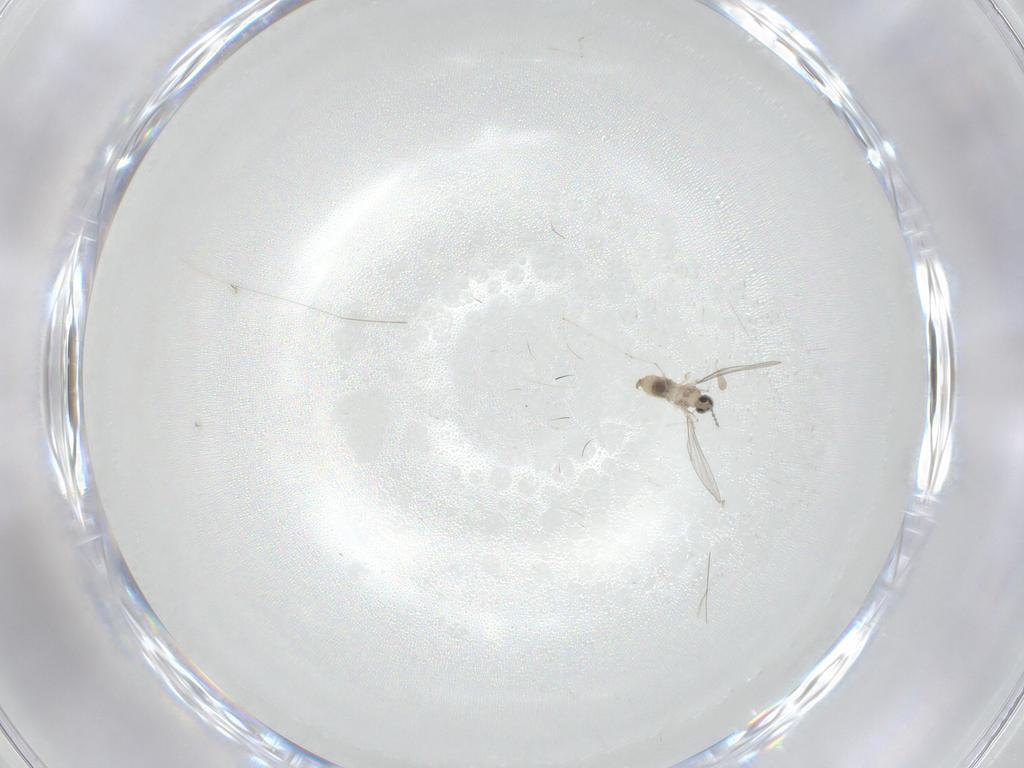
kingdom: Animalia
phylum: Arthropoda
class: Insecta
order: Diptera
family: Cecidomyiidae
